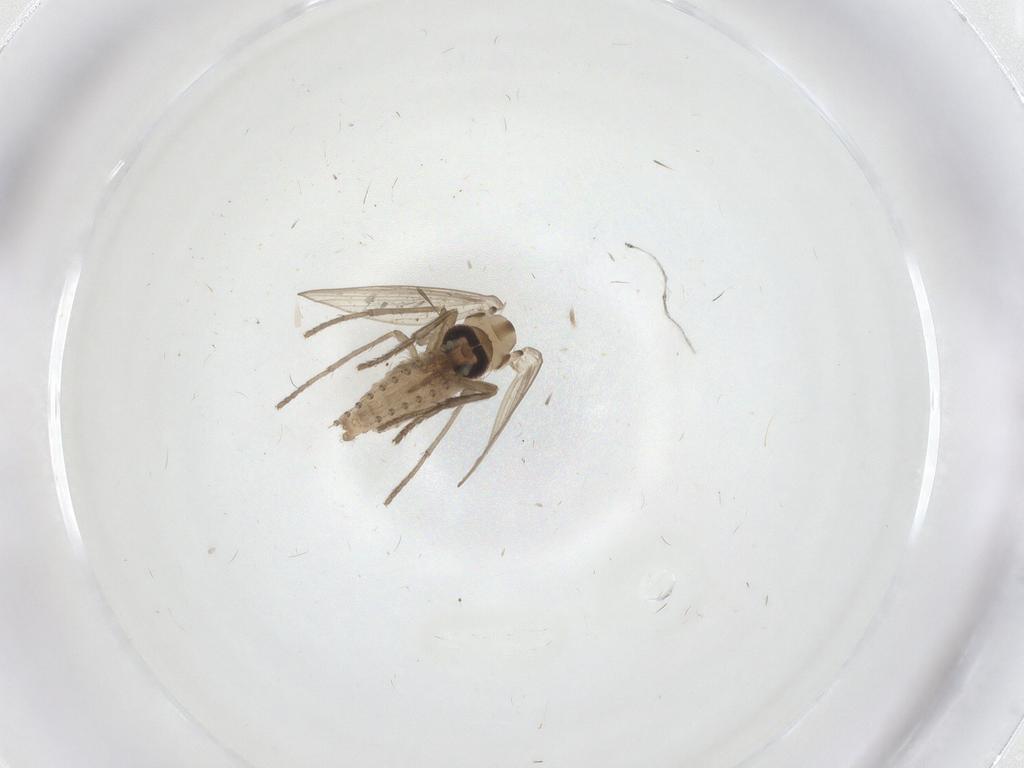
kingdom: Animalia
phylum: Arthropoda
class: Insecta
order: Diptera
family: Psychodidae
